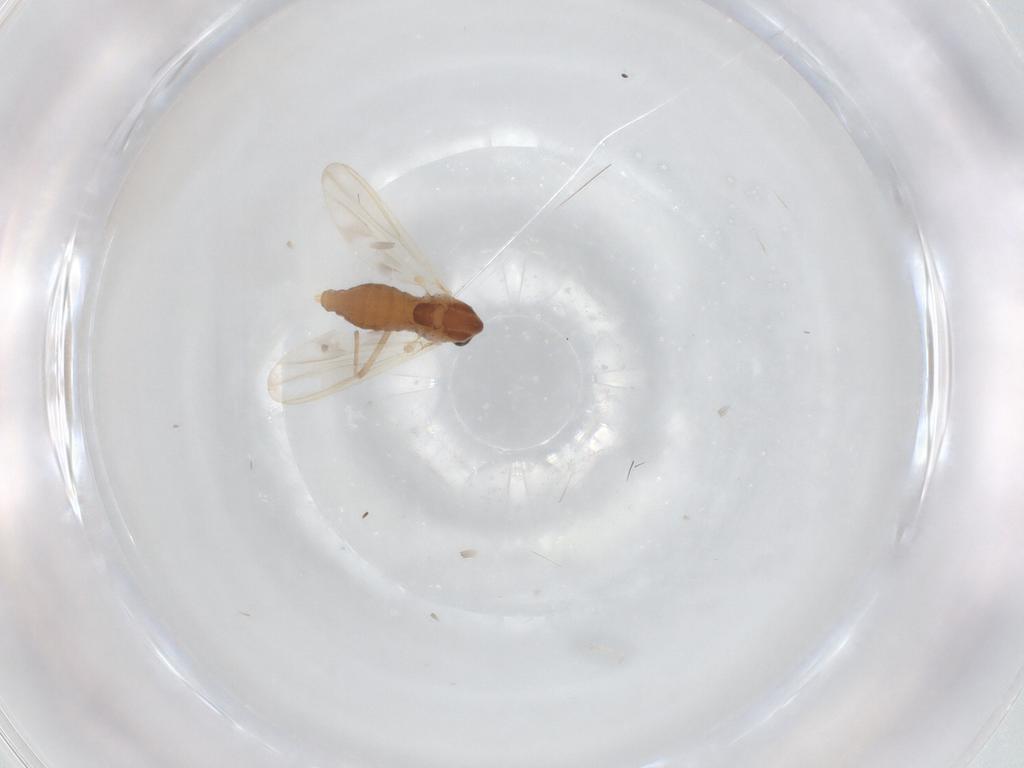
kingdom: Animalia
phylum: Arthropoda
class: Insecta
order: Diptera
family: Chironomidae
